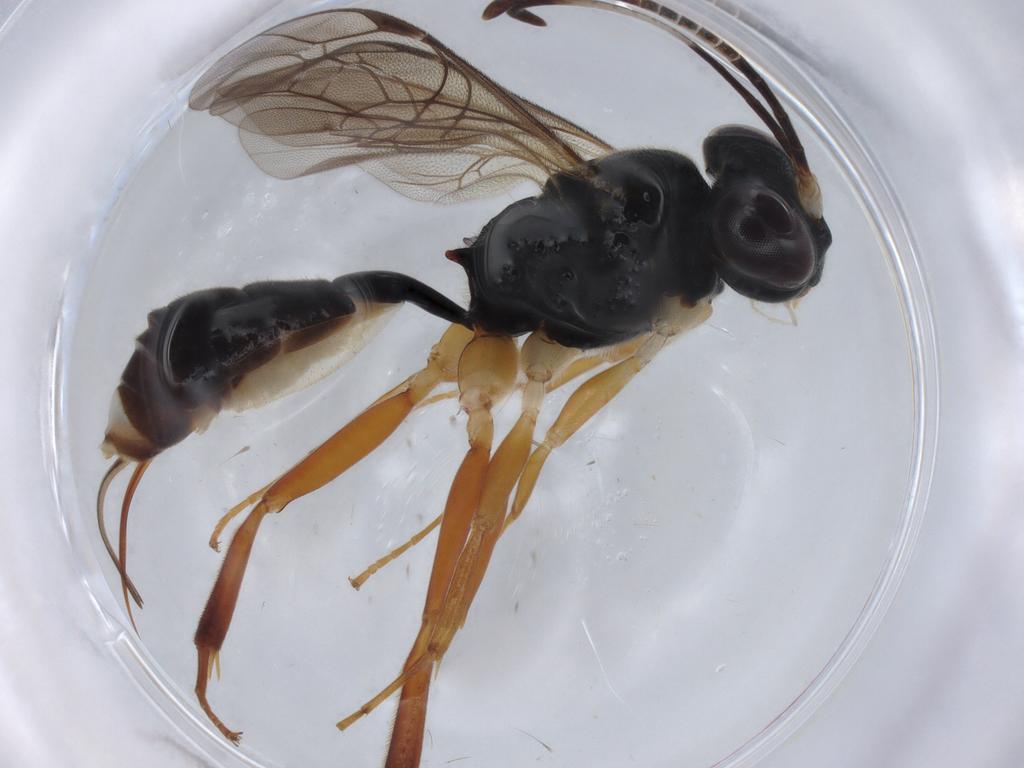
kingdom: Animalia
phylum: Arthropoda
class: Insecta
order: Hymenoptera
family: Ichneumonidae
